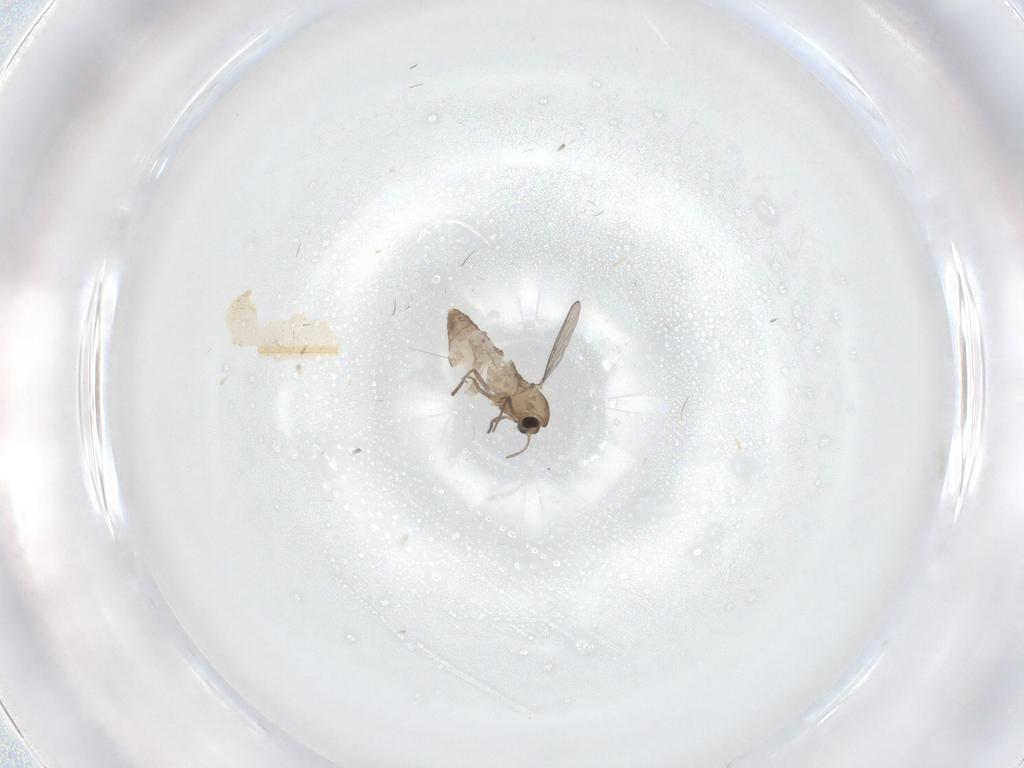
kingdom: Animalia
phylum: Arthropoda
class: Insecta
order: Diptera
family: Chironomidae
